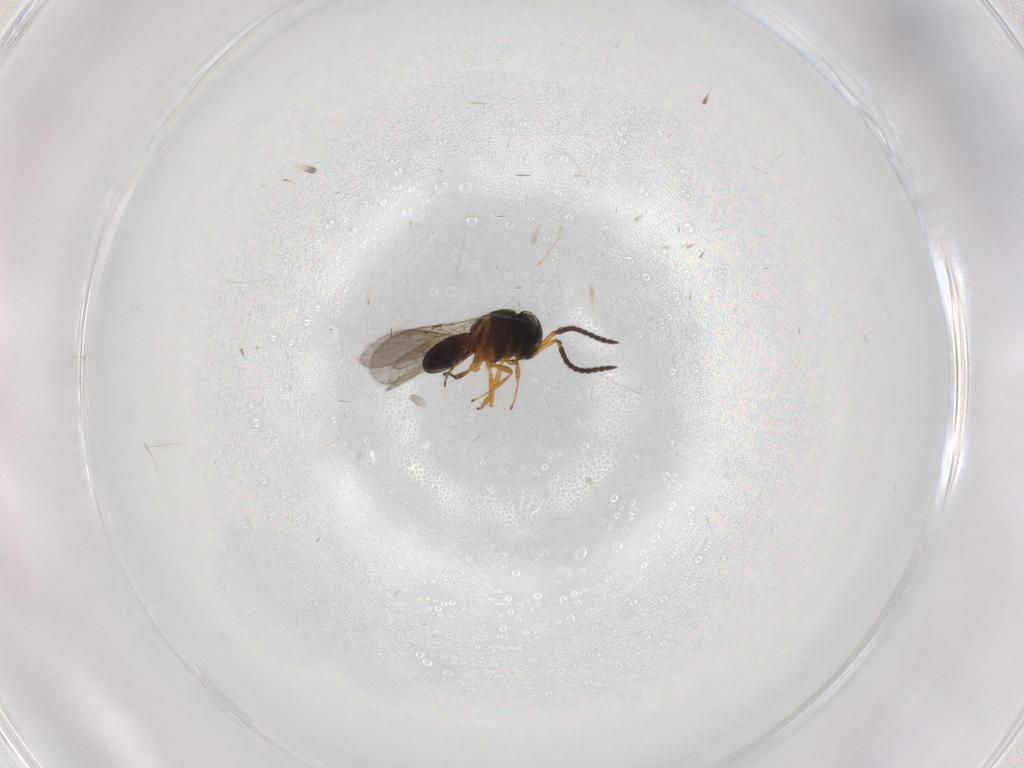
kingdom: Animalia
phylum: Arthropoda
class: Insecta
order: Hymenoptera
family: Scelionidae
